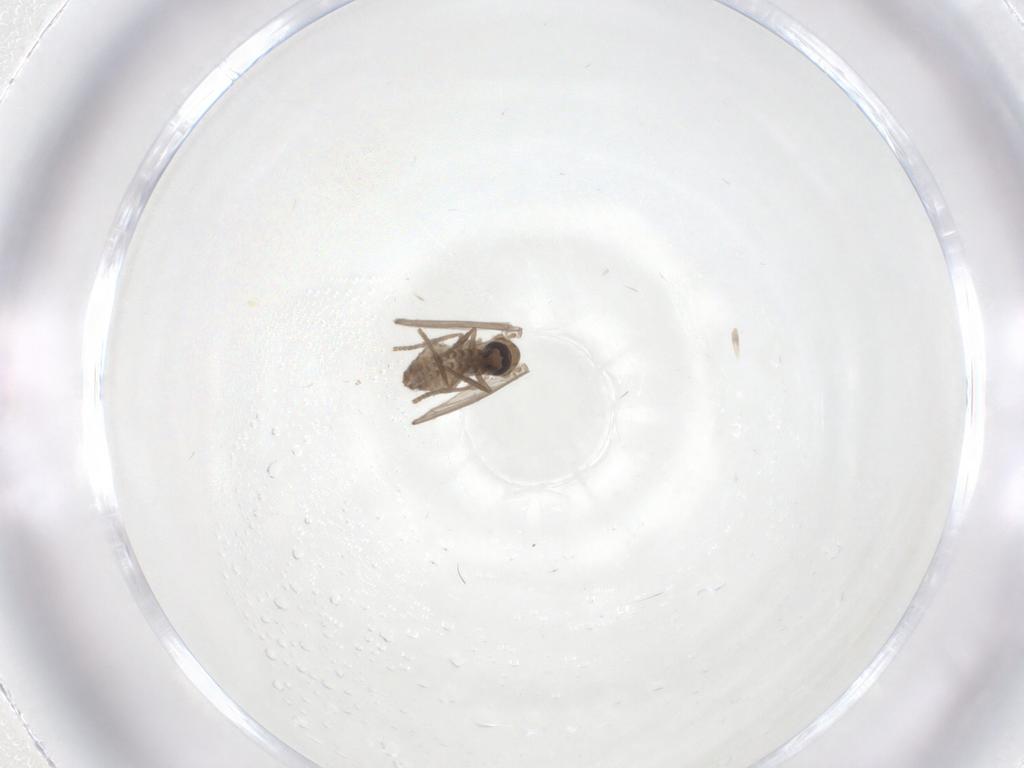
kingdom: Animalia
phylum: Arthropoda
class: Insecta
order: Diptera
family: Psychodidae
